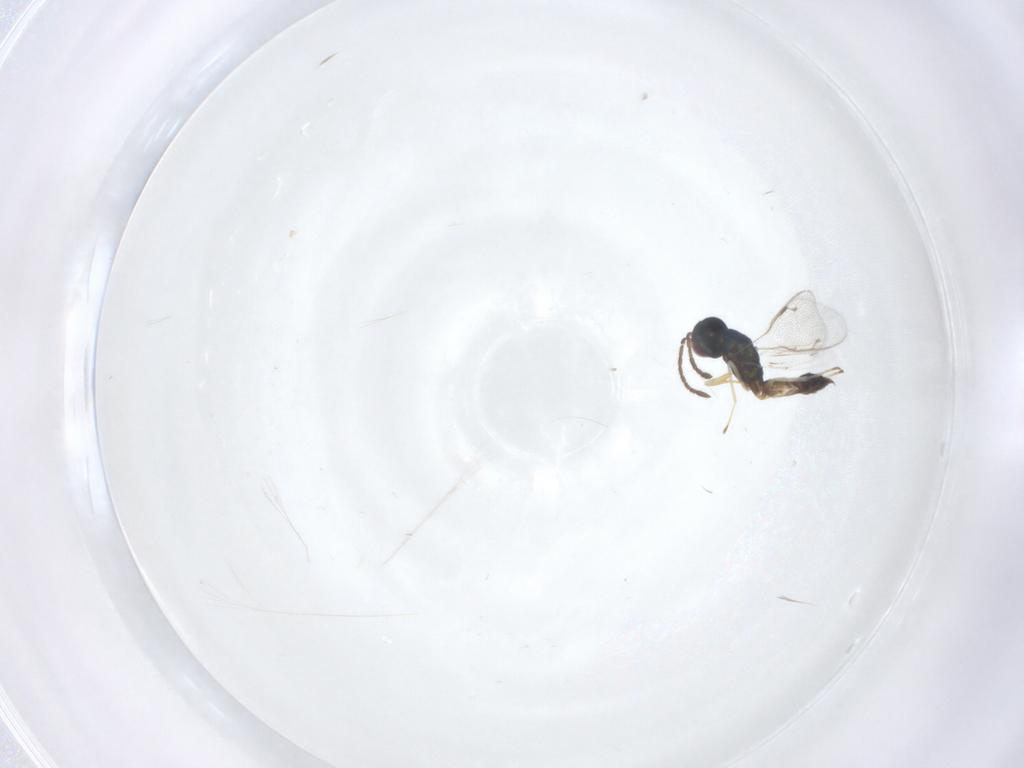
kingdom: Animalia
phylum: Arthropoda
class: Insecta
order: Hymenoptera
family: Pteromalidae
